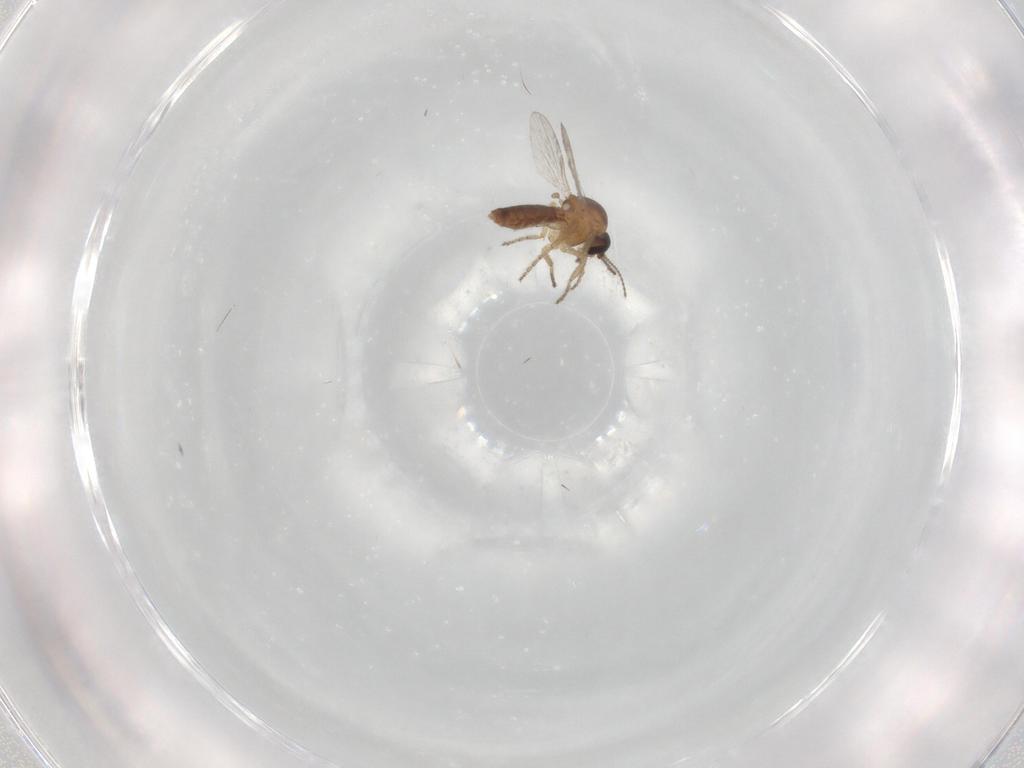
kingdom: Animalia
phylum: Arthropoda
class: Insecta
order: Diptera
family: Ceratopogonidae
